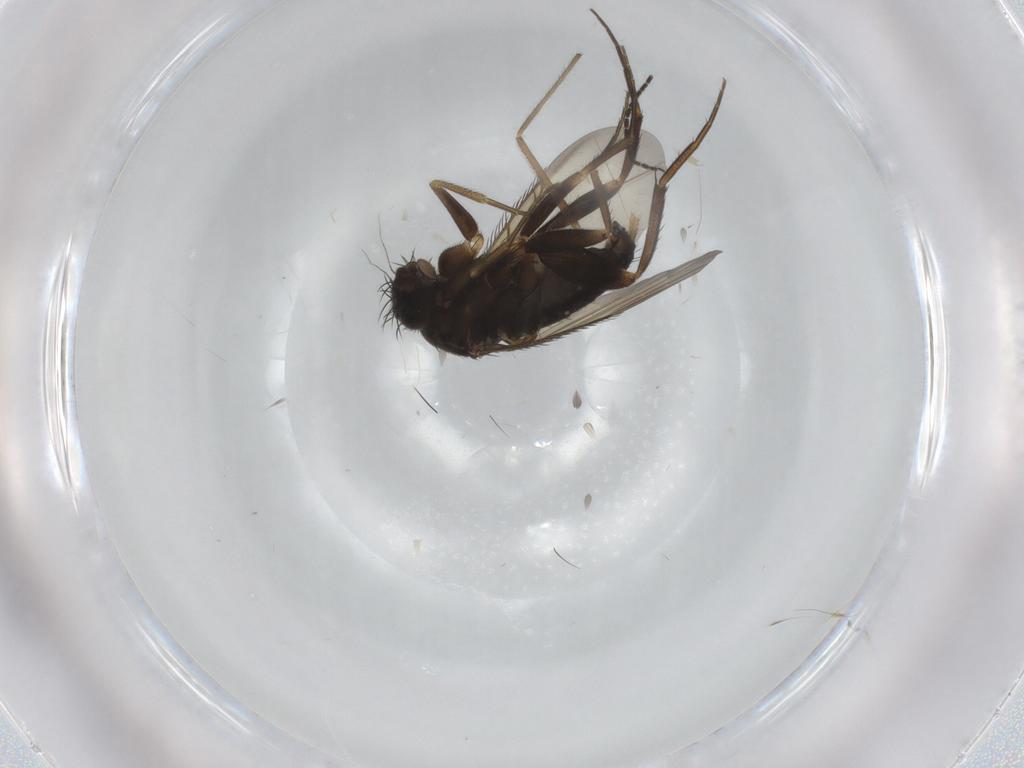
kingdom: Animalia
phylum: Arthropoda
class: Insecta
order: Diptera
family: Phoridae
